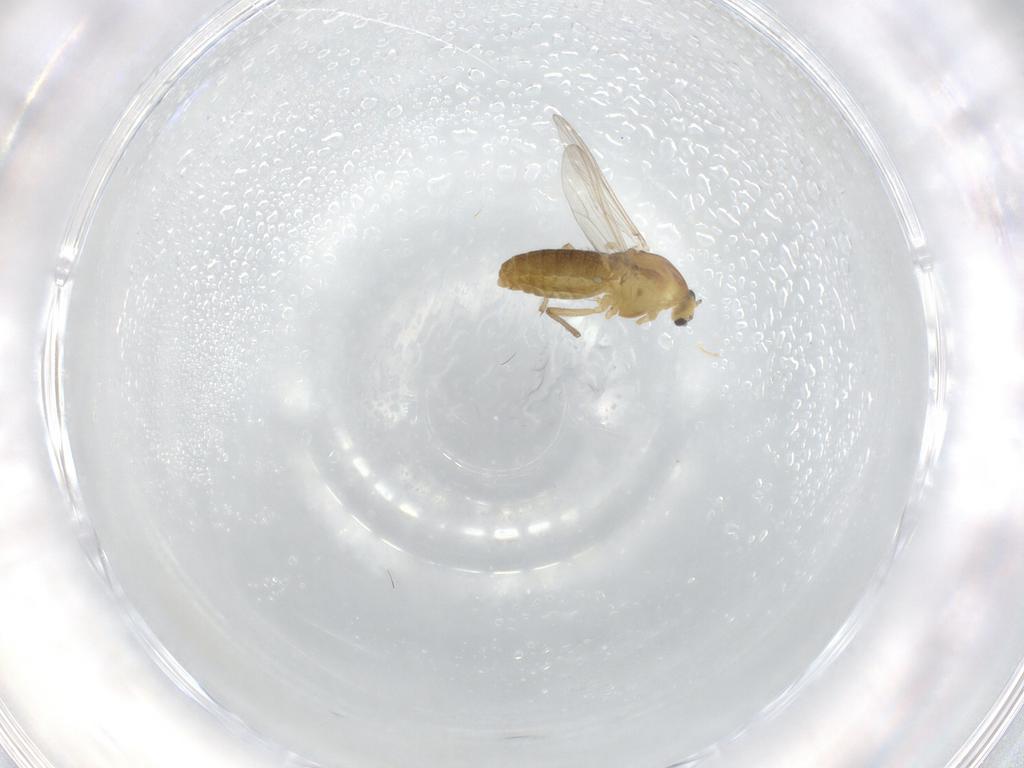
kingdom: Animalia
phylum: Arthropoda
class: Insecta
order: Diptera
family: Chironomidae
